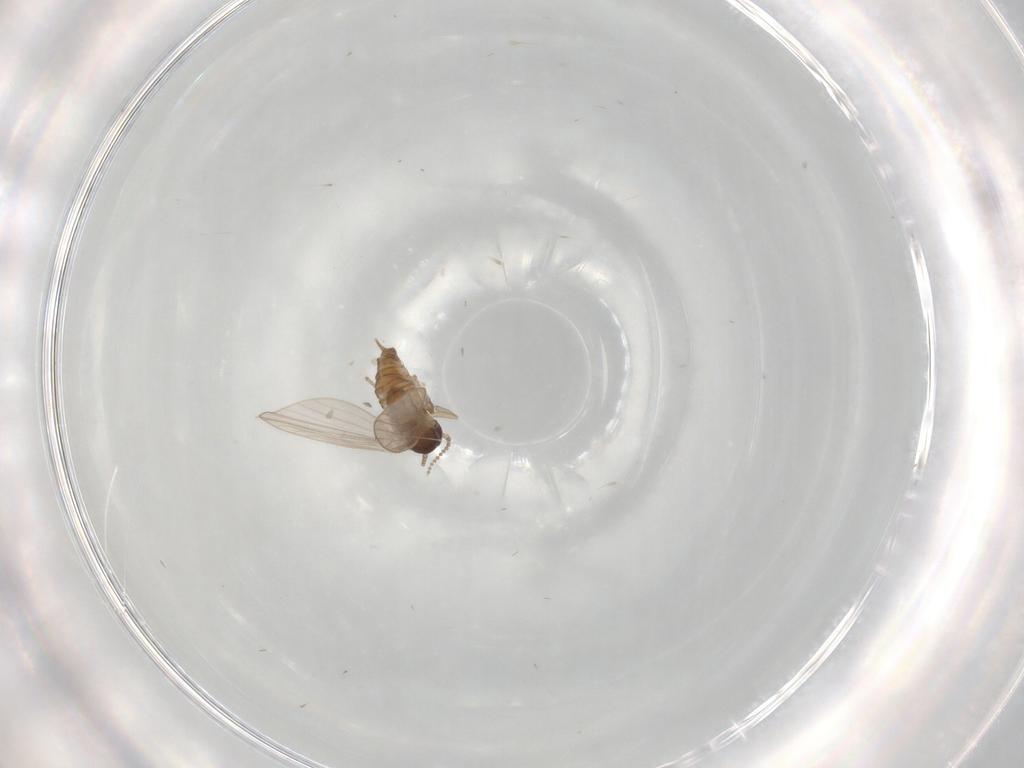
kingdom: Animalia
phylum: Arthropoda
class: Insecta
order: Diptera
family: Psychodidae
